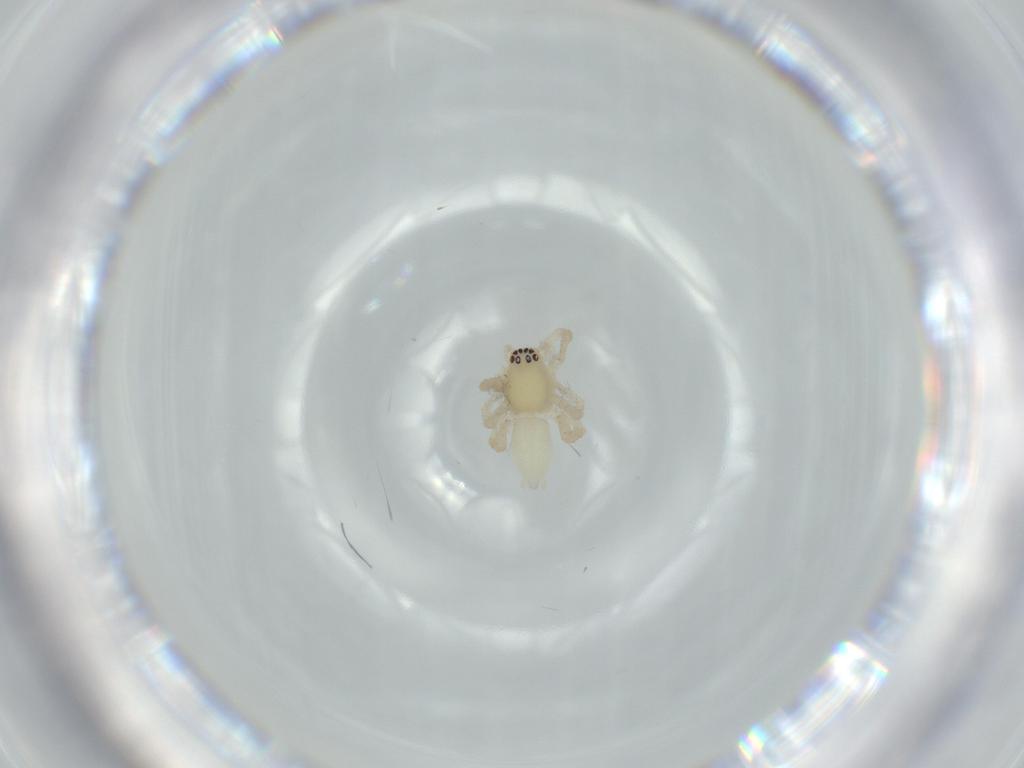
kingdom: Animalia
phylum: Arthropoda
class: Arachnida
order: Araneae
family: Anyphaenidae
